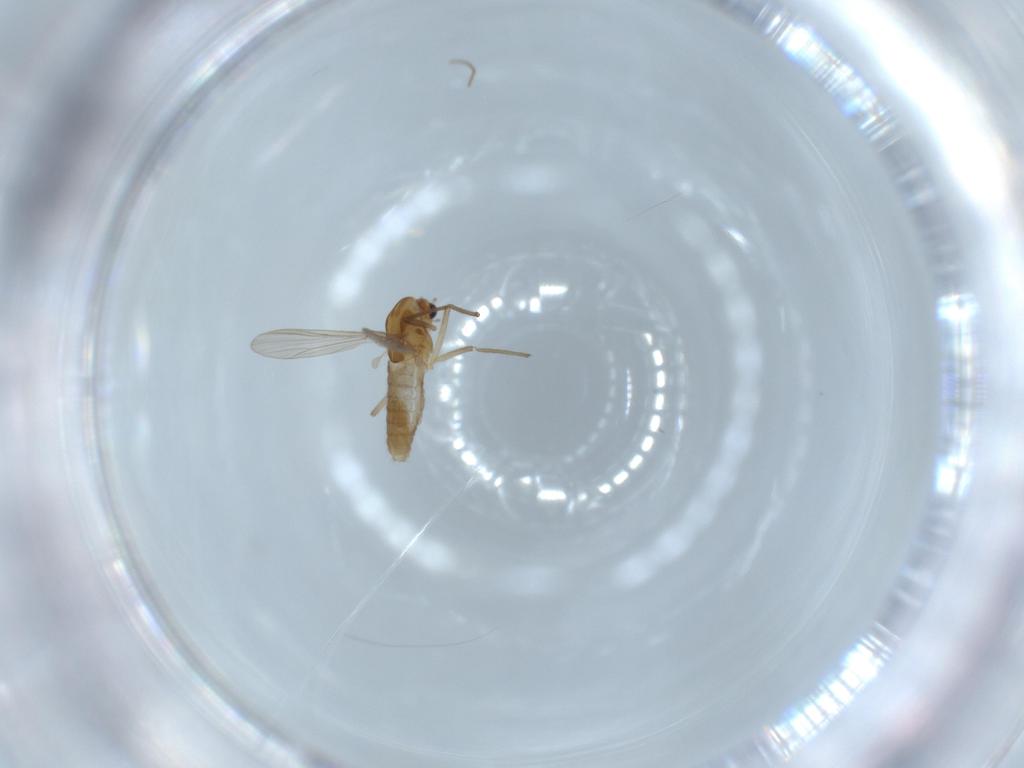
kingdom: Animalia
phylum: Arthropoda
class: Insecta
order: Diptera
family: Chironomidae
